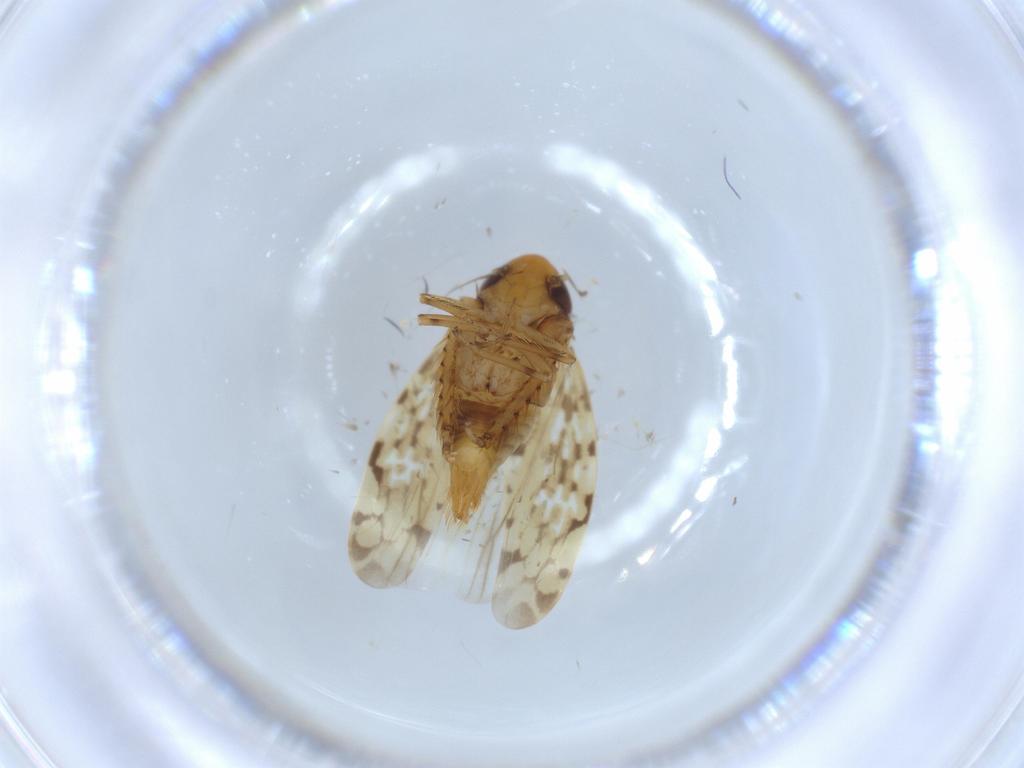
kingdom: Animalia
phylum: Arthropoda
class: Insecta
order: Hemiptera
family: Cicadellidae
